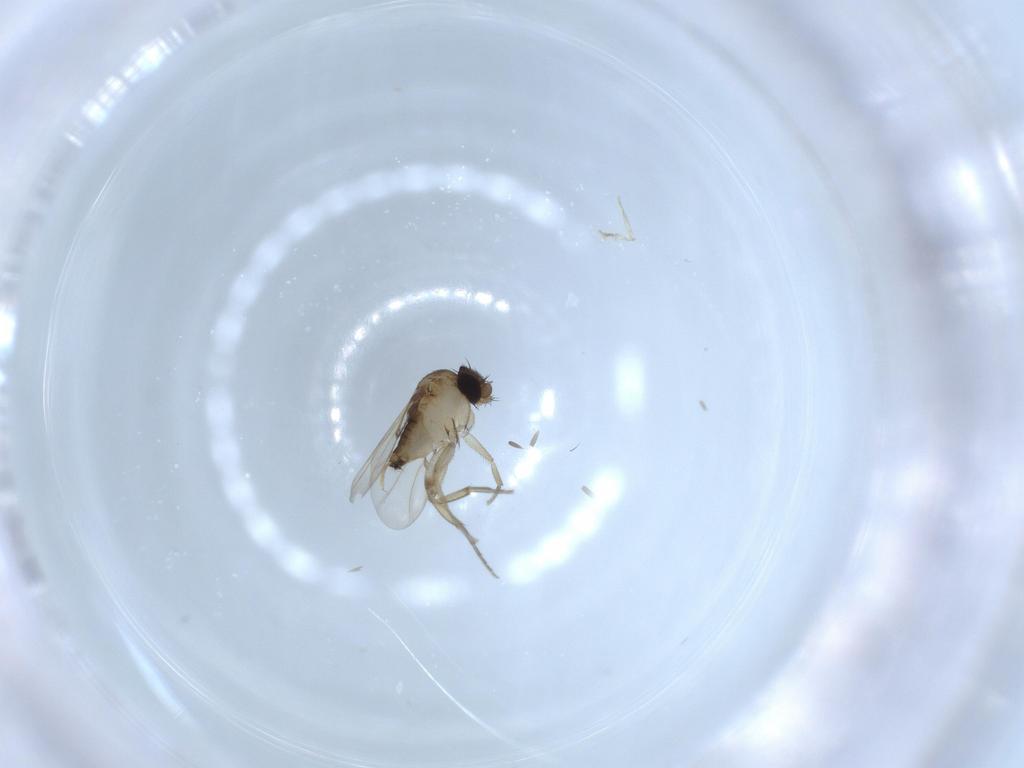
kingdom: Animalia
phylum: Arthropoda
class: Insecta
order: Diptera
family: Phoridae
